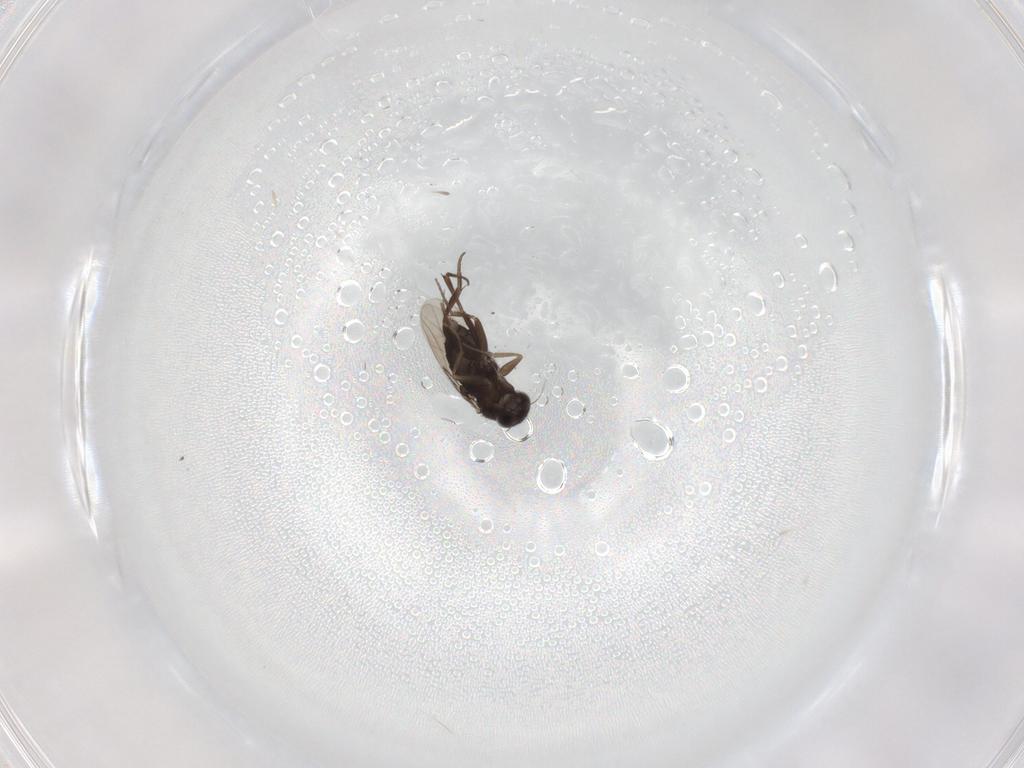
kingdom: Animalia
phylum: Arthropoda
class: Insecta
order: Diptera
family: Phoridae
